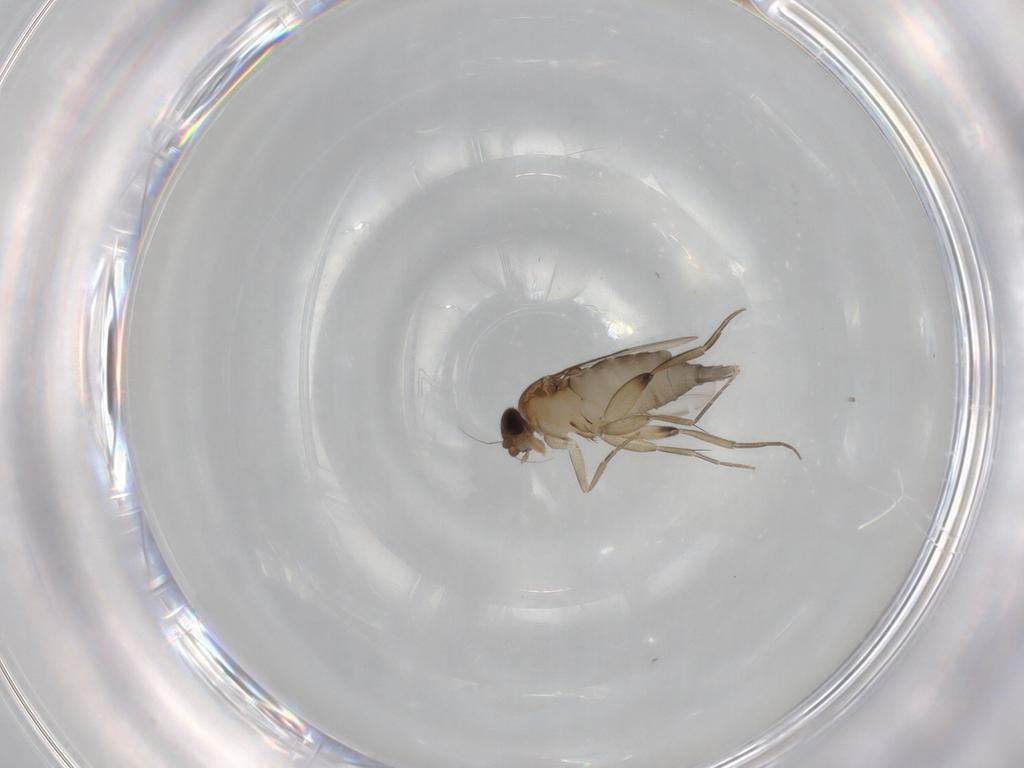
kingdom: Animalia
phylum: Arthropoda
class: Insecta
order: Diptera
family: Phoridae
